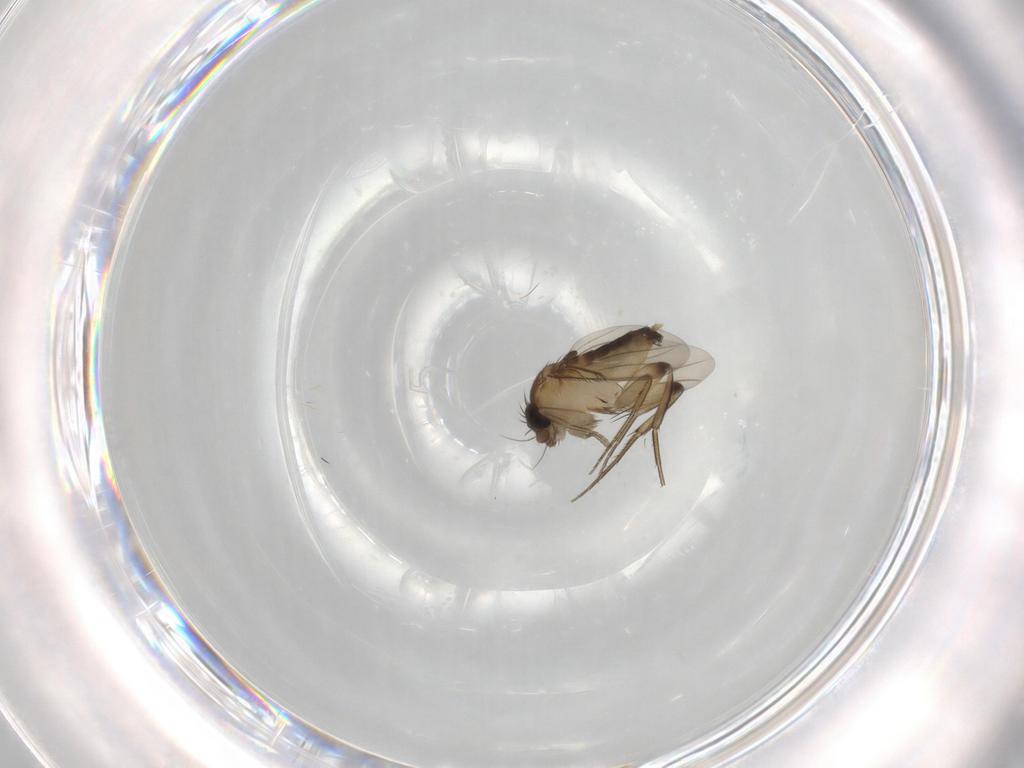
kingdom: Animalia
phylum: Arthropoda
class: Insecta
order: Diptera
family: Phoridae
